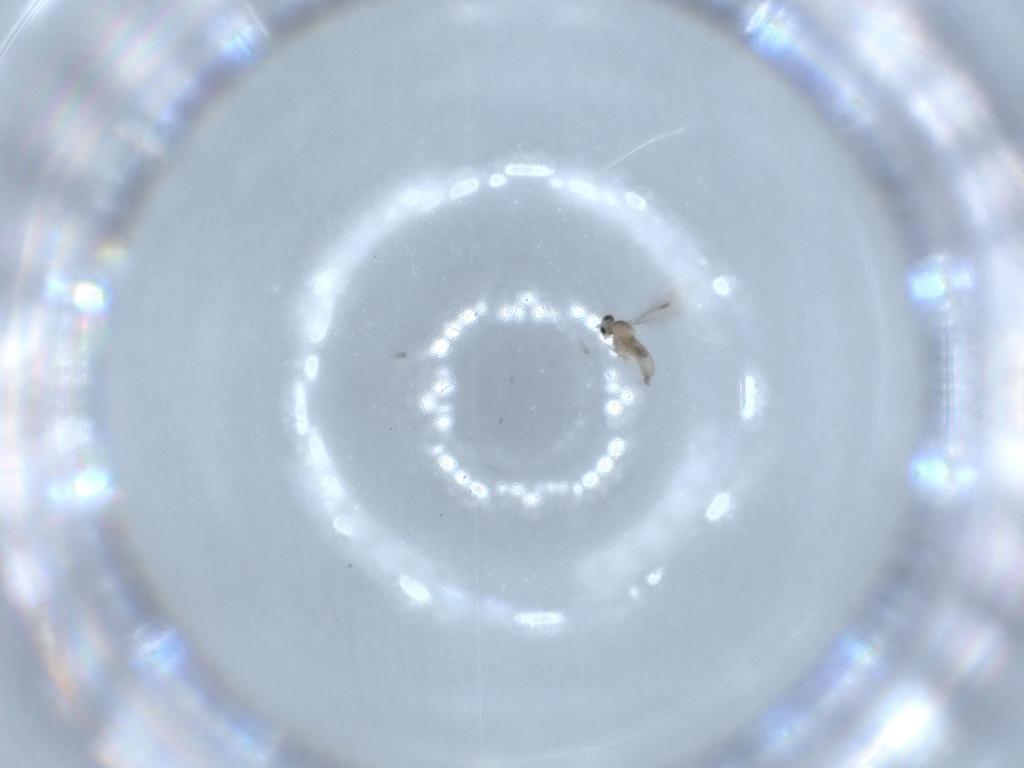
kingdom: Animalia
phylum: Arthropoda
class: Insecta
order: Diptera
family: Cecidomyiidae
